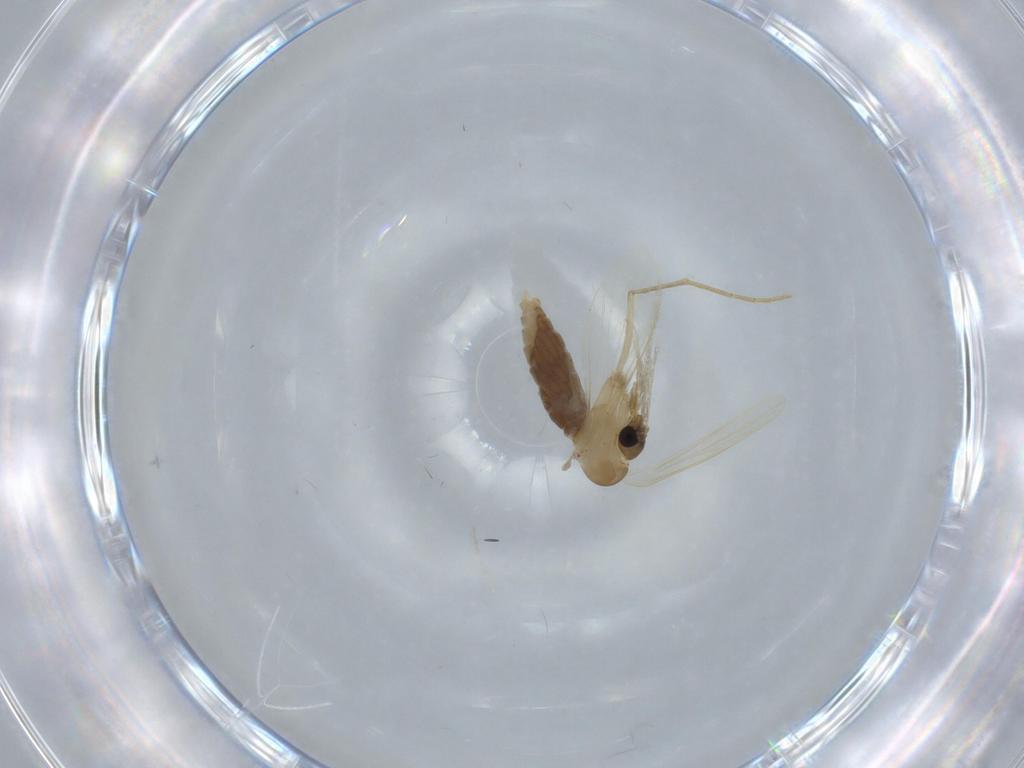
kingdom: Animalia
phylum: Arthropoda
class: Insecta
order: Diptera
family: Psychodidae
